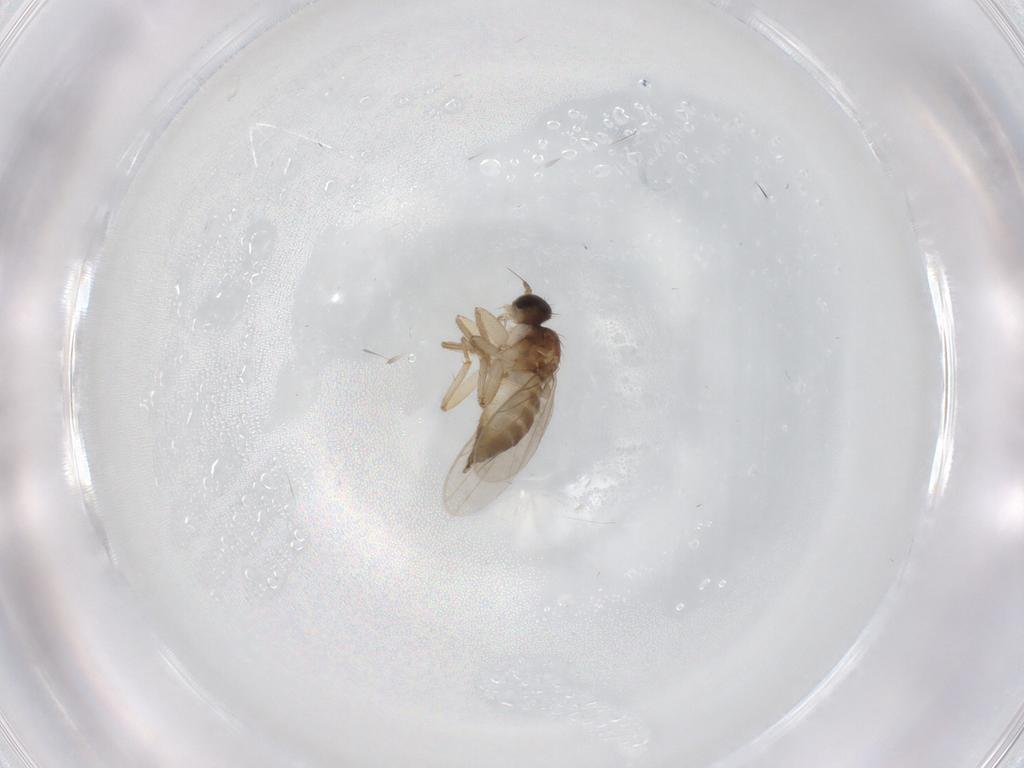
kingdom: Animalia
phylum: Arthropoda
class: Insecta
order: Diptera
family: Hybotidae
